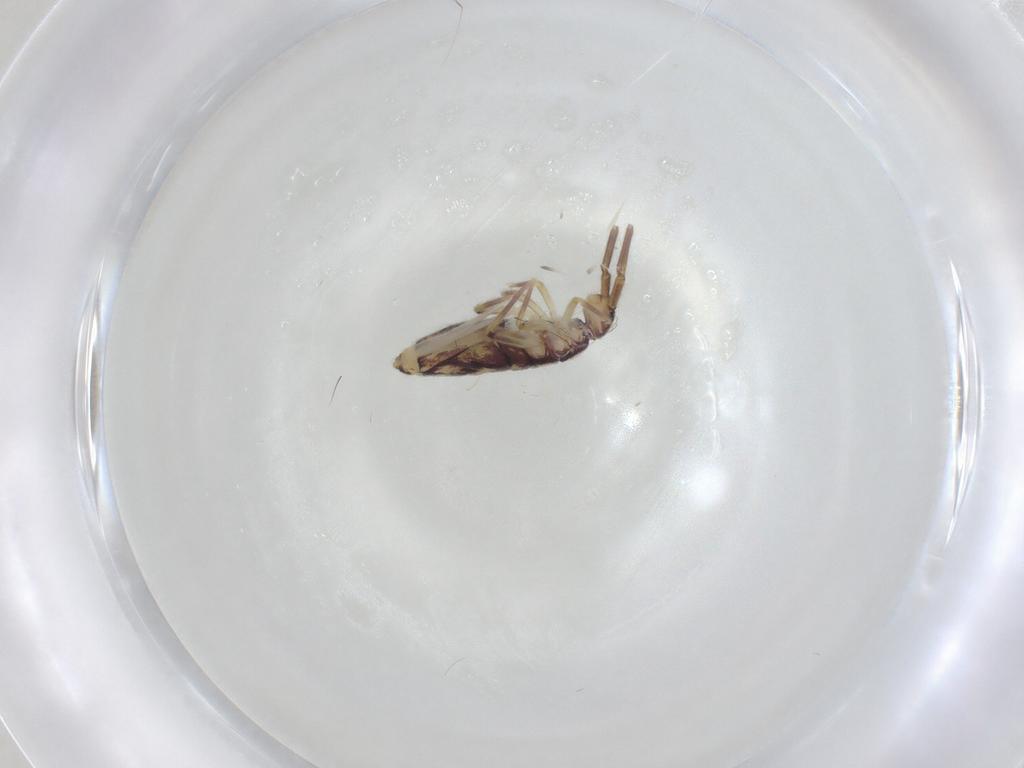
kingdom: Animalia
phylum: Arthropoda
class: Collembola
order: Entomobryomorpha
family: Entomobryidae
